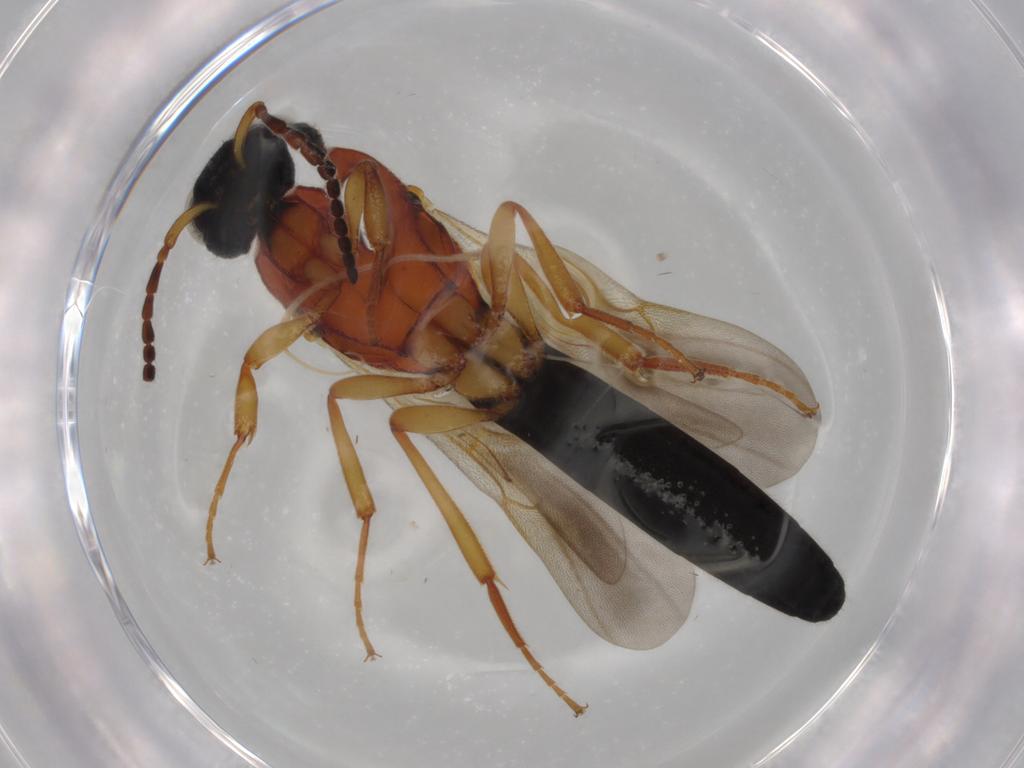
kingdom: Animalia
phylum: Arthropoda
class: Insecta
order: Hymenoptera
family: Scelionidae
